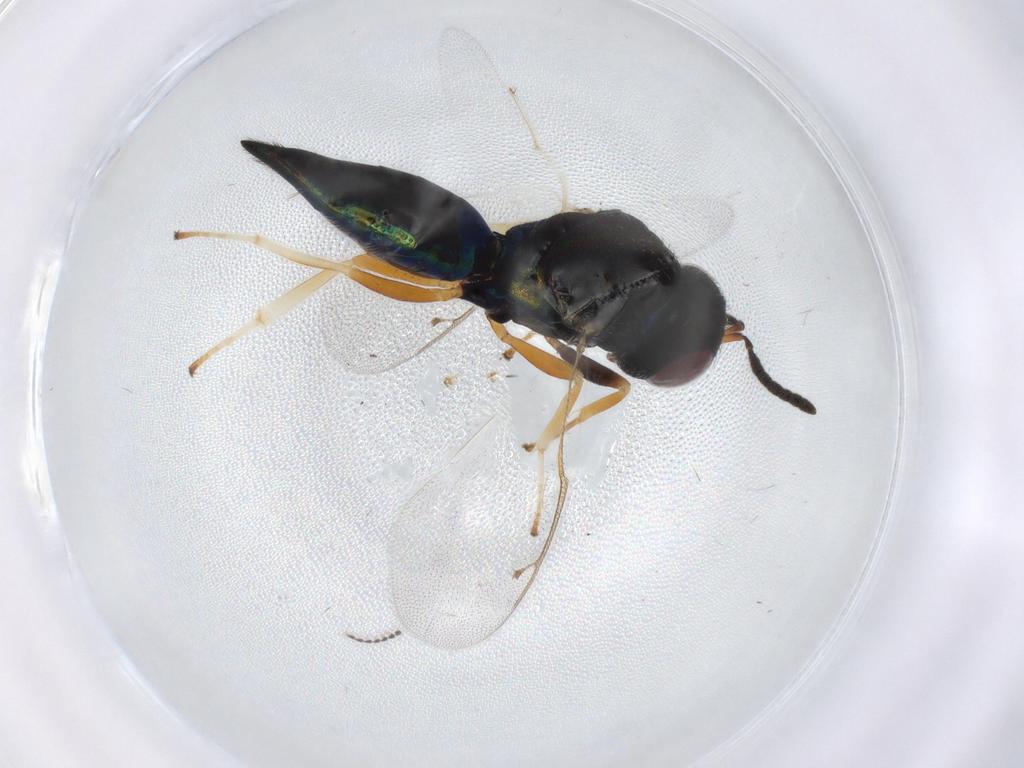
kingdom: Animalia
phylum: Arthropoda
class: Insecta
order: Hymenoptera
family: Pteromalidae
